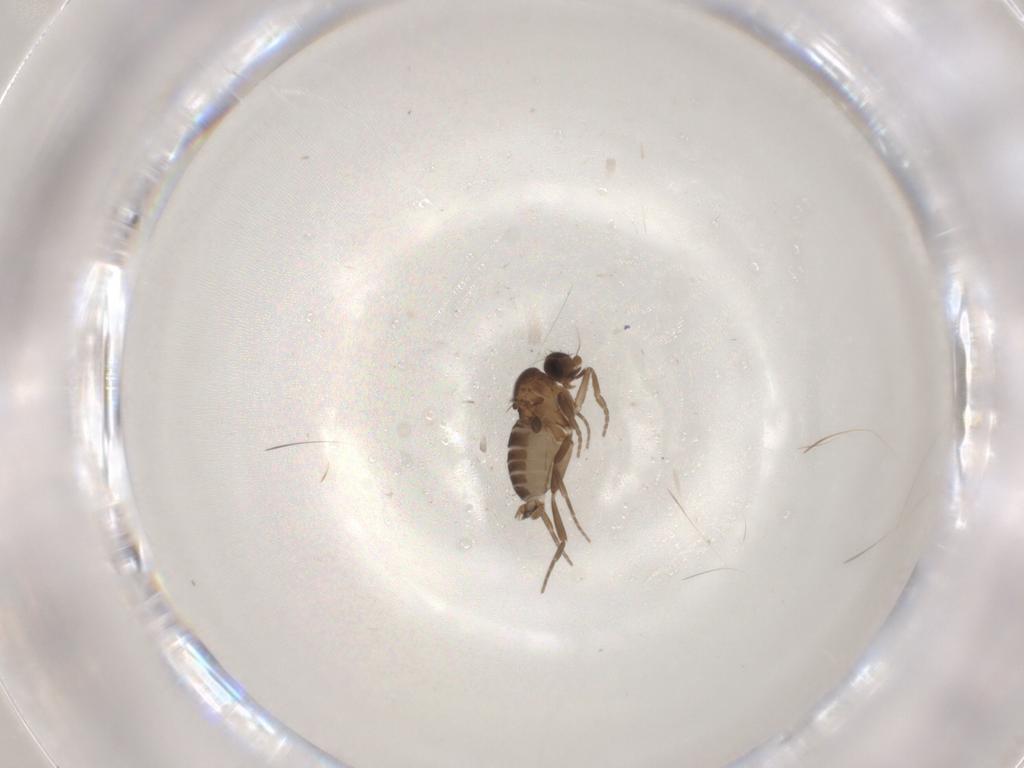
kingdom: Animalia
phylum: Arthropoda
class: Insecta
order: Diptera
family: Cecidomyiidae
